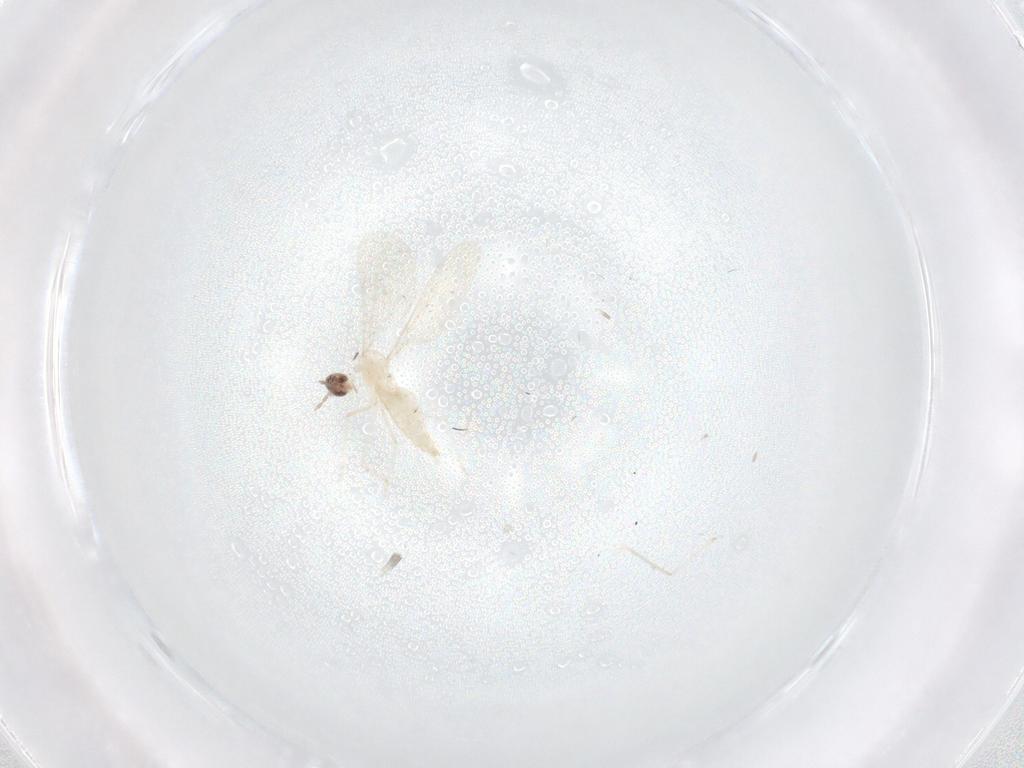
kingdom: Animalia
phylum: Arthropoda
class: Insecta
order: Diptera
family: Cecidomyiidae
